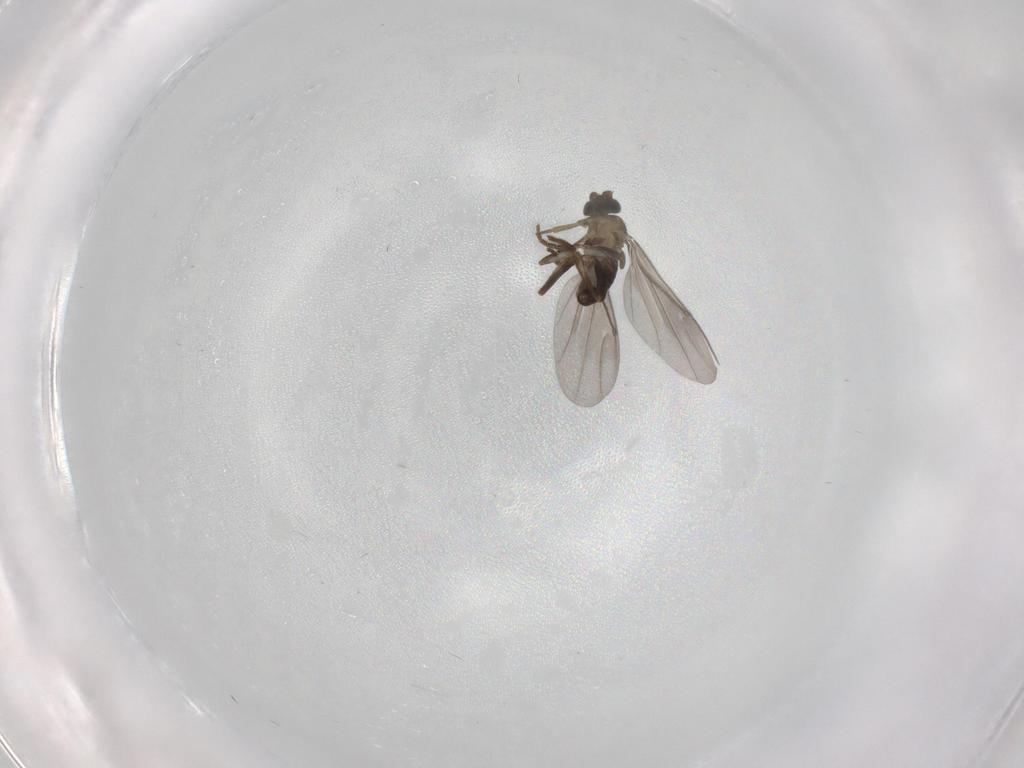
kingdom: Animalia
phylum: Arthropoda
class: Insecta
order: Diptera
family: Phoridae
